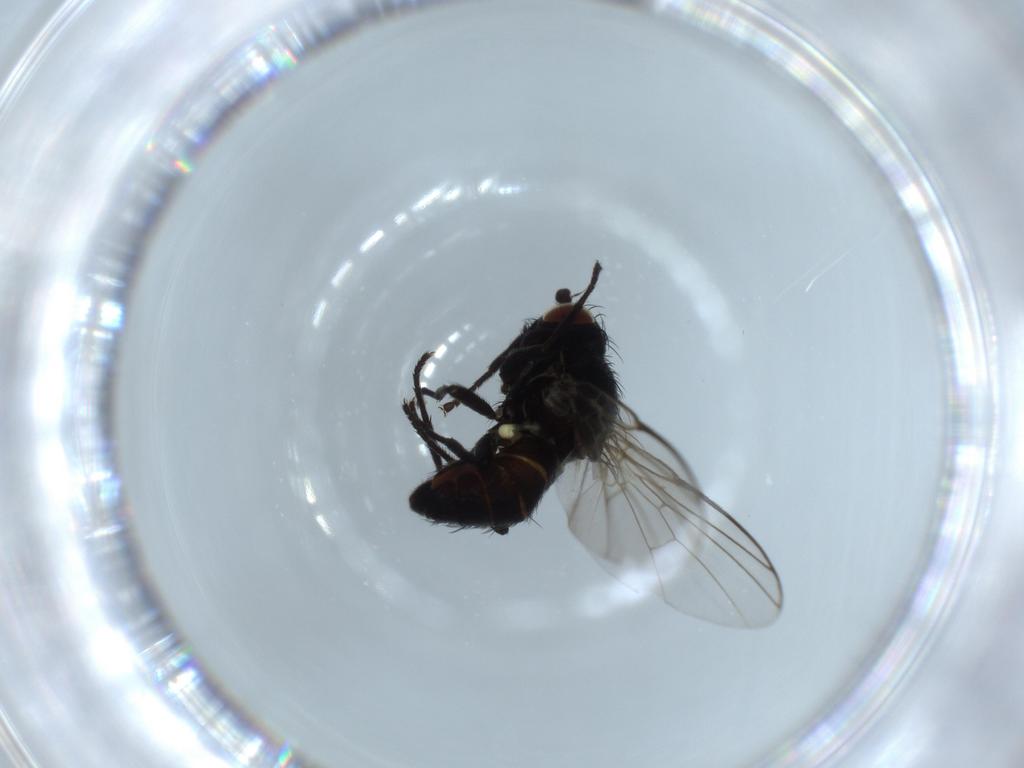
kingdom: Animalia
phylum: Arthropoda
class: Insecta
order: Diptera
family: Agromyzidae
